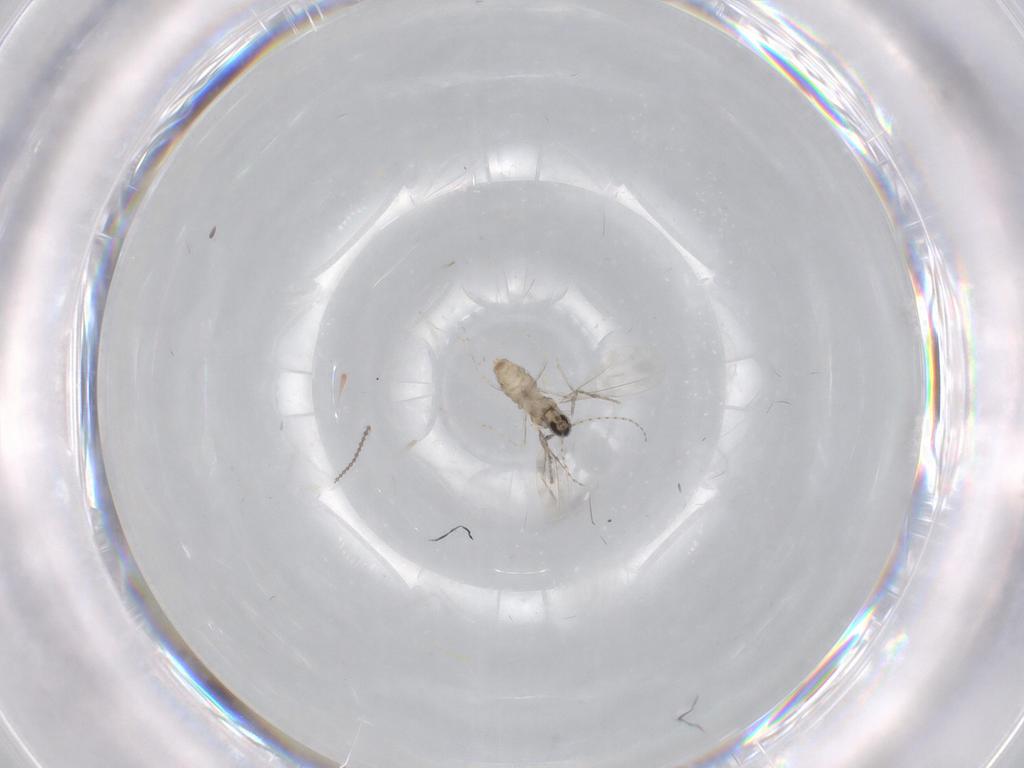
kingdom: Animalia
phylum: Arthropoda
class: Insecta
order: Diptera
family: Cecidomyiidae
